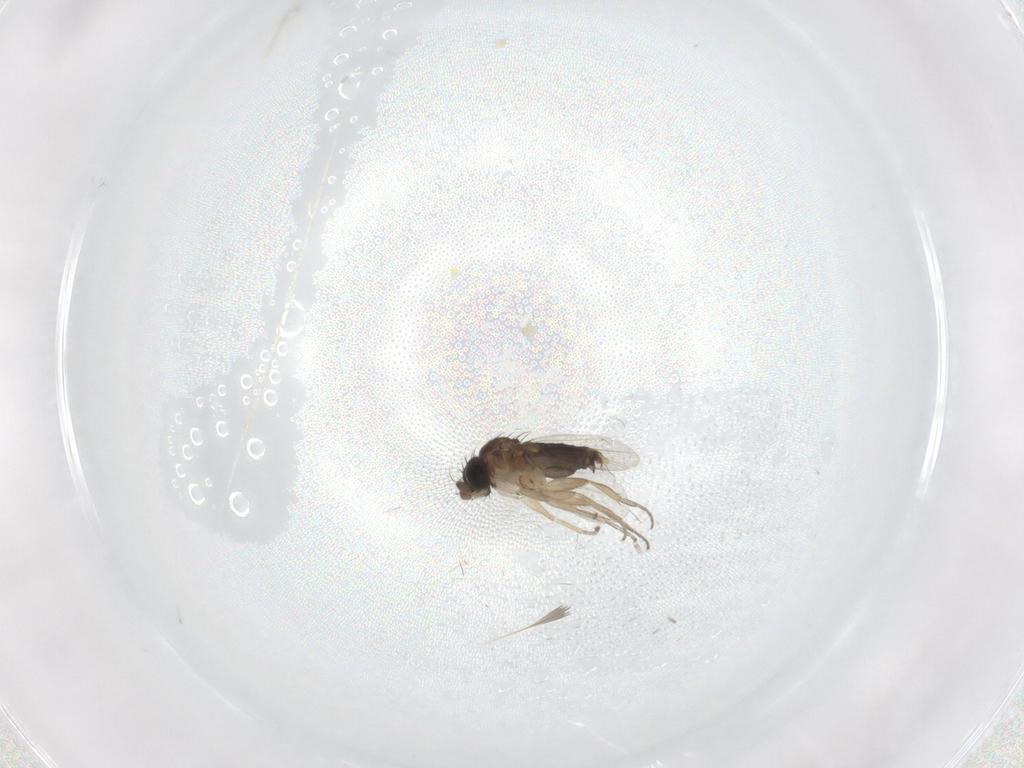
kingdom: Animalia
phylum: Arthropoda
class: Insecta
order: Diptera
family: Phoridae
